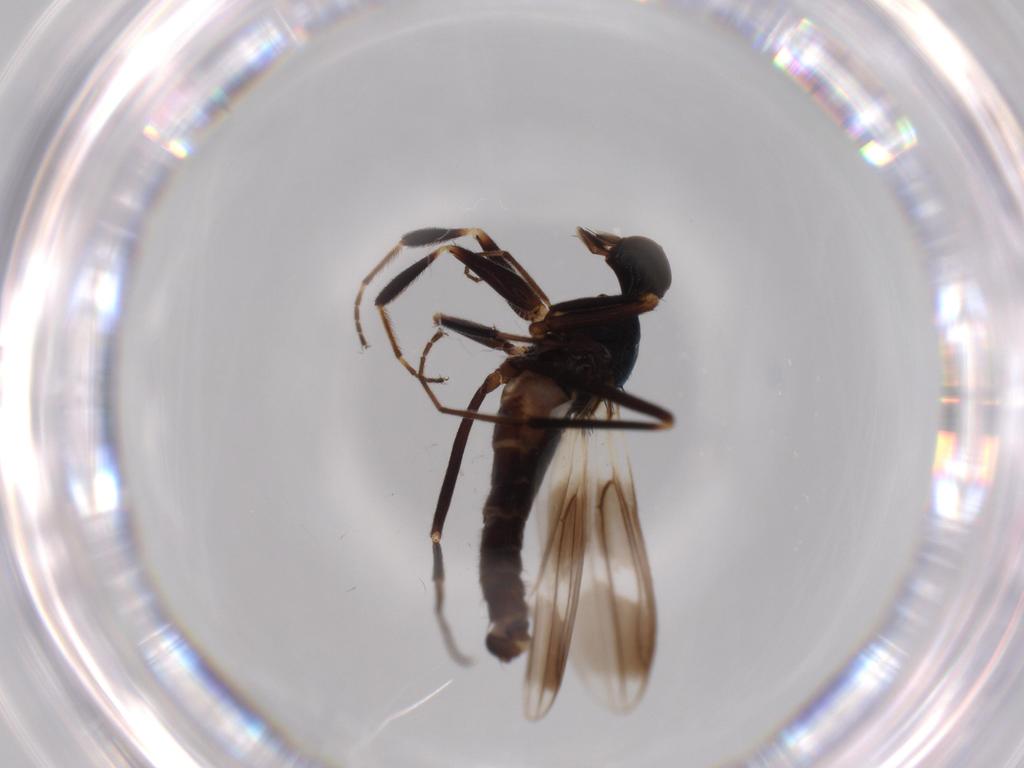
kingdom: Animalia
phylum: Arthropoda
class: Insecta
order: Diptera
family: Hybotidae
